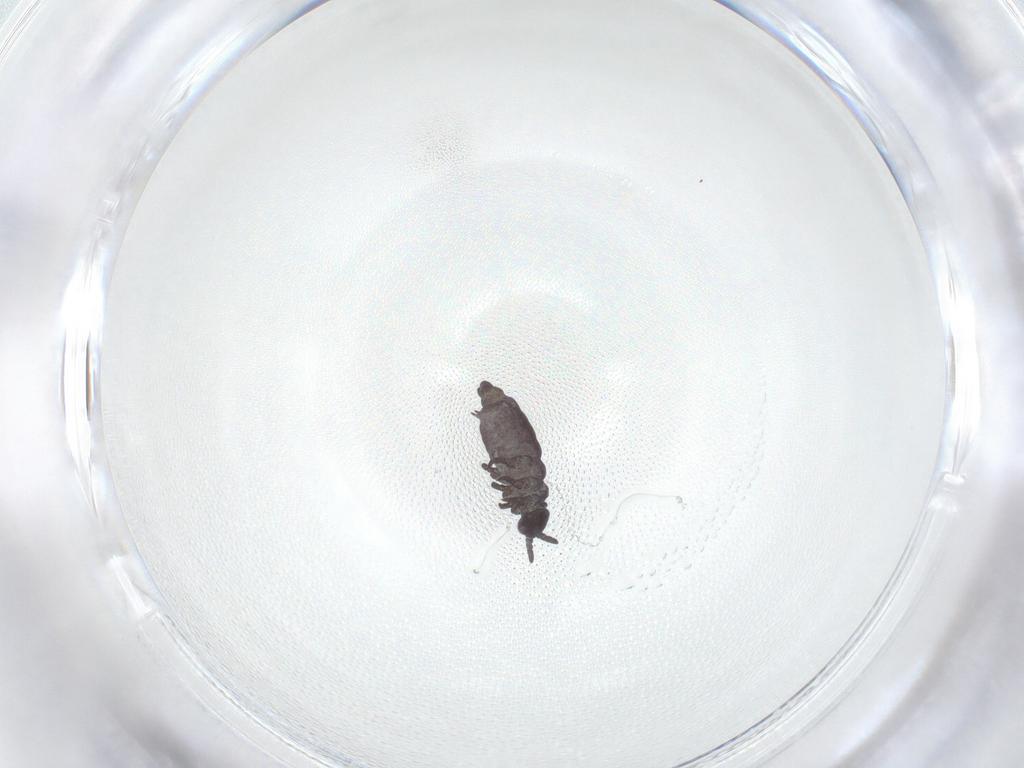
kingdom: Animalia
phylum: Arthropoda
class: Collembola
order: Poduromorpha
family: Hypogastruridae
